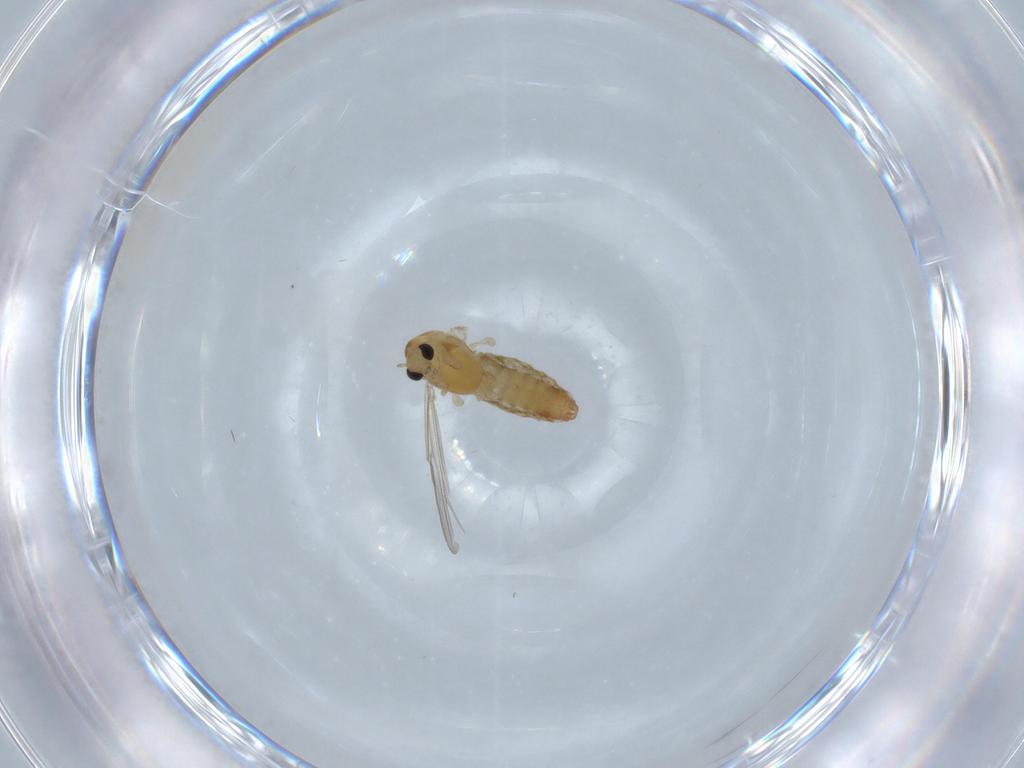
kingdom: Animalia
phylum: Arthropoda
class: Insecta
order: Diptera
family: Chironomidae
